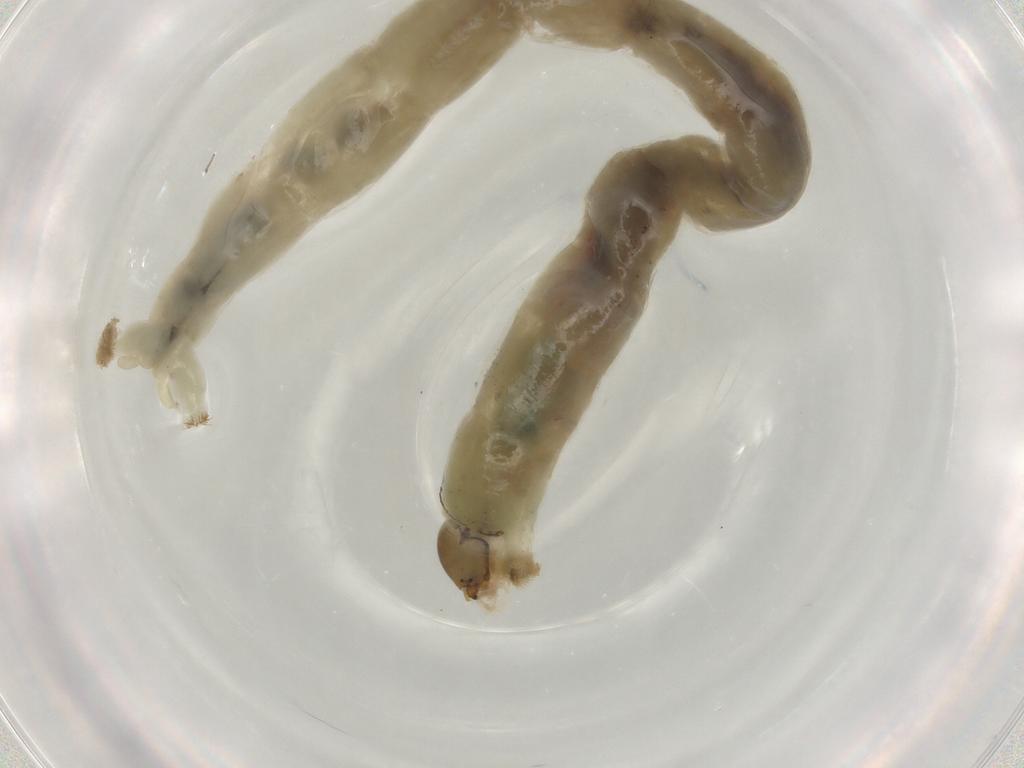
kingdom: Animalia
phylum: Arthropoda
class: Insecta
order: Diptera
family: Chironomidae
